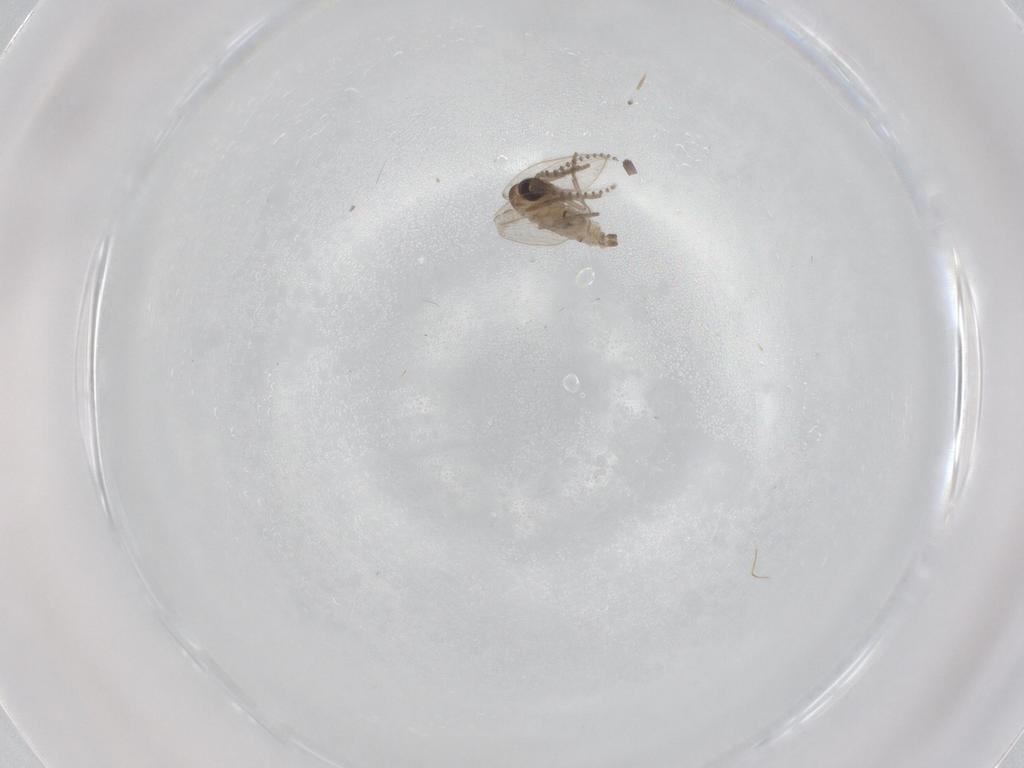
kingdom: Animalia
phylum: Arthropoda
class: Insecta
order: Diptera
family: Psychodidae
